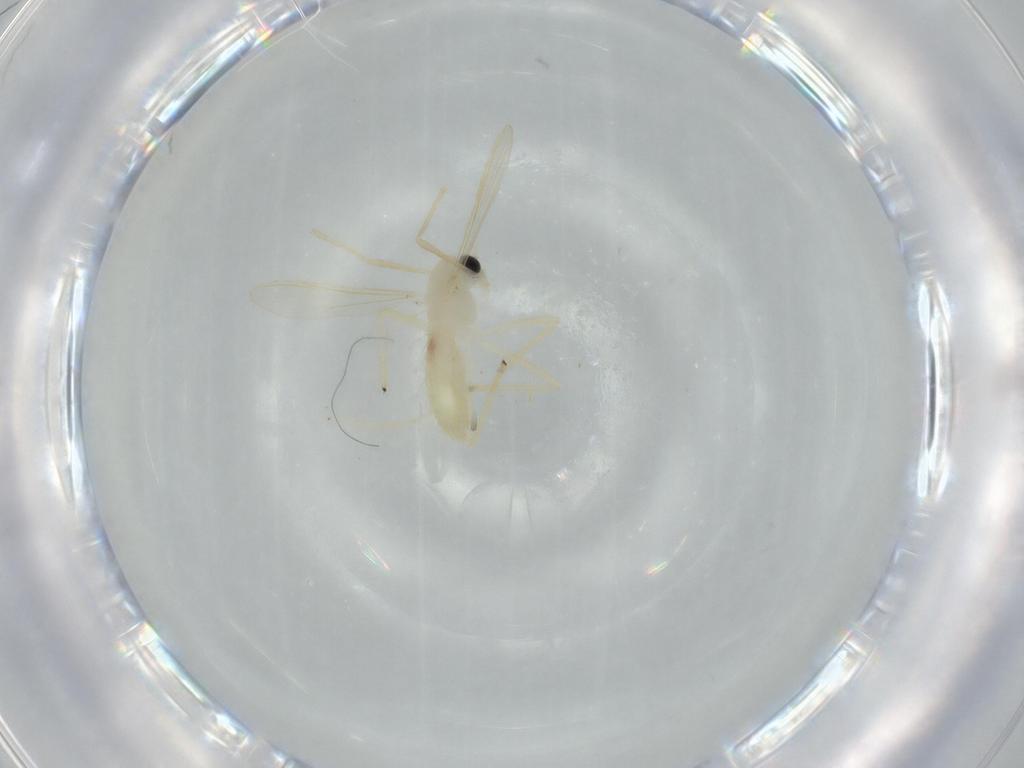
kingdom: Animalia
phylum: Arthropoda
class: Insecta
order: Diptera
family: Chironomidae
